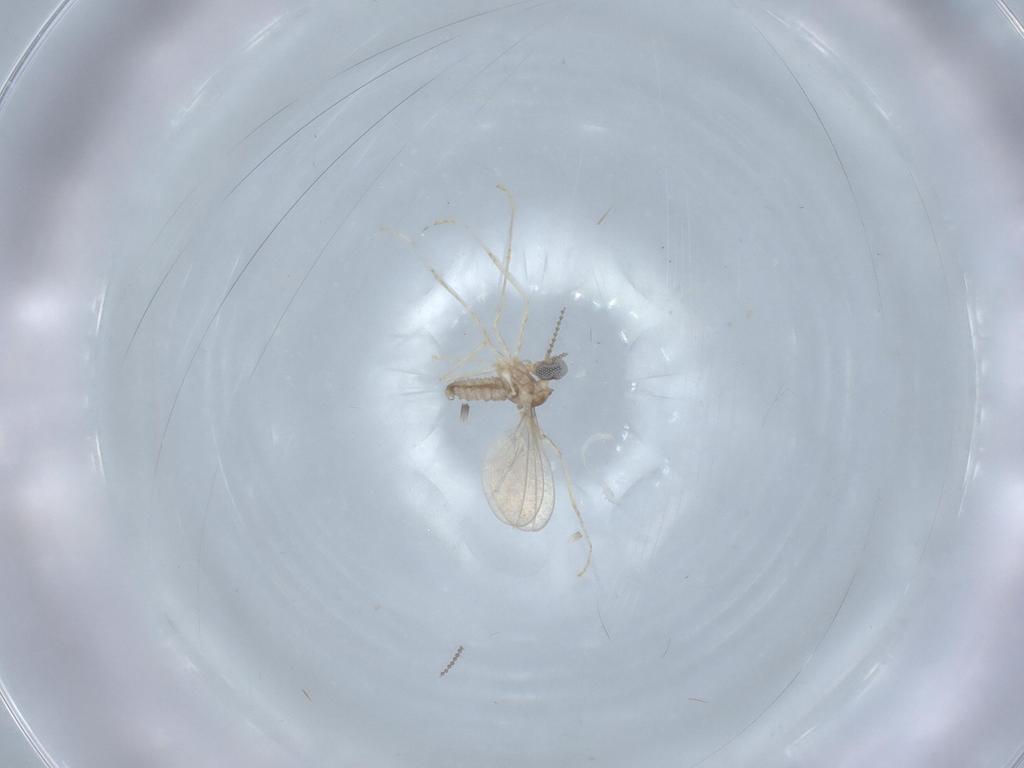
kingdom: Animalia
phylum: Arthropoda
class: Insecta
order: Diptera
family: Cecidomyiidae
